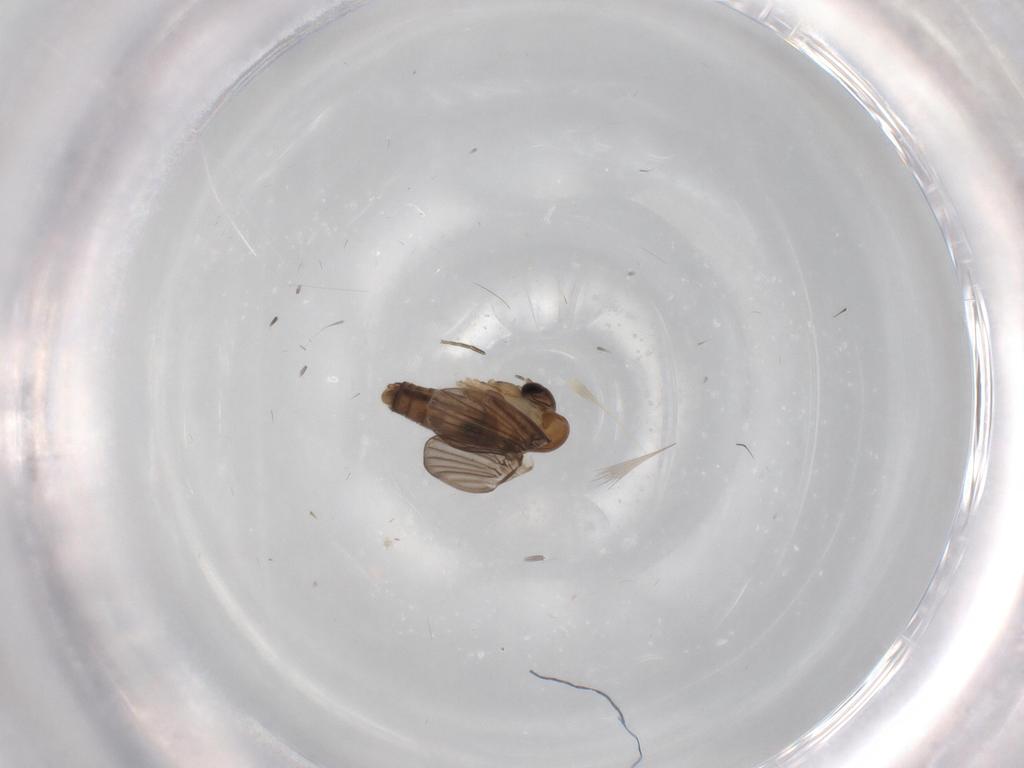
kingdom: Animalia
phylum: Arthropoda
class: Insecta
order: Diptera
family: Phoridae
